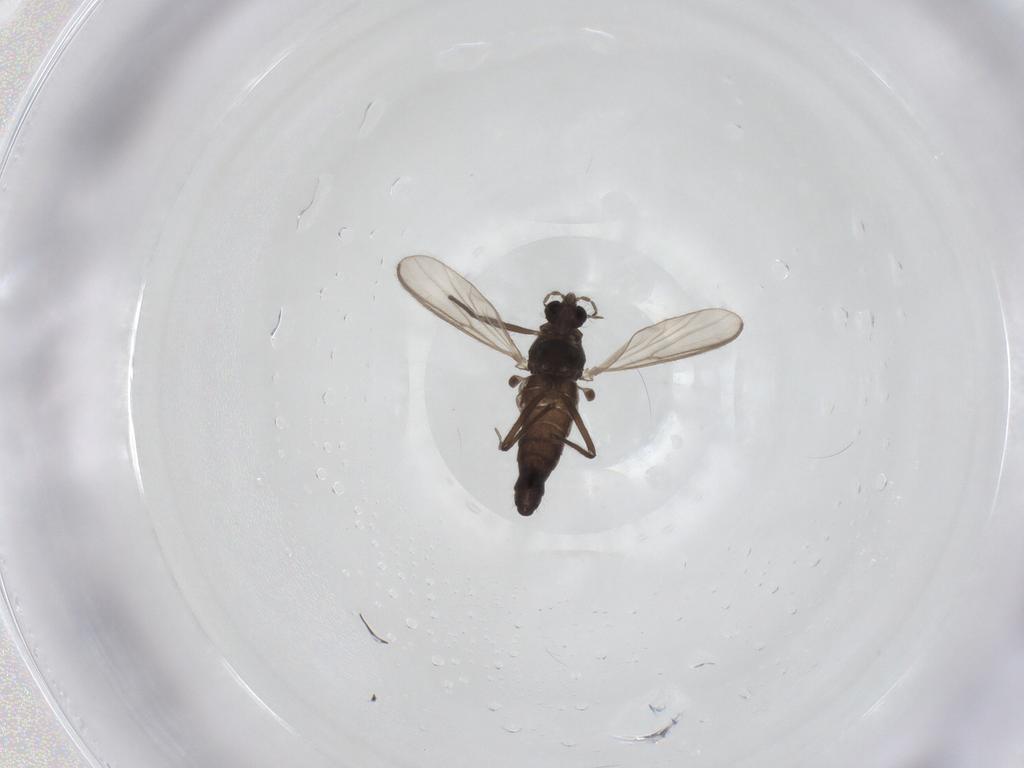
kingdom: Animalia
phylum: Arthropoda
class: Insecta
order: Diptera
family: Chironomidae
